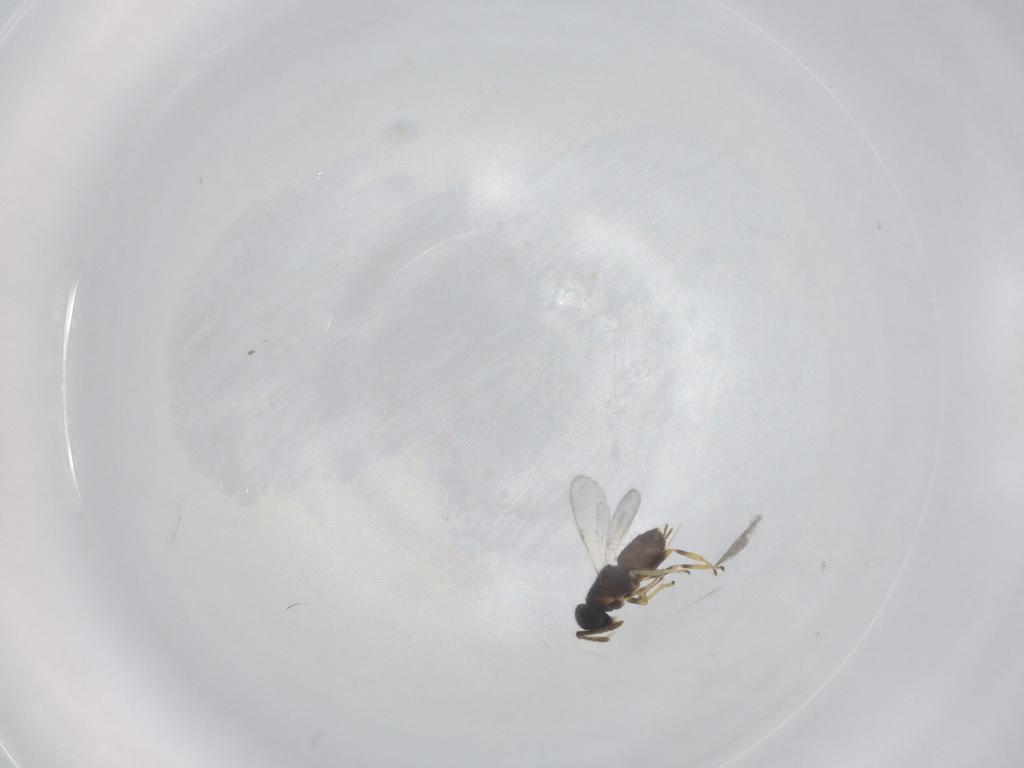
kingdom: Animalia
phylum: Arthropoda
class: Insecta
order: Hymenoptera
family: Encyrtidae
